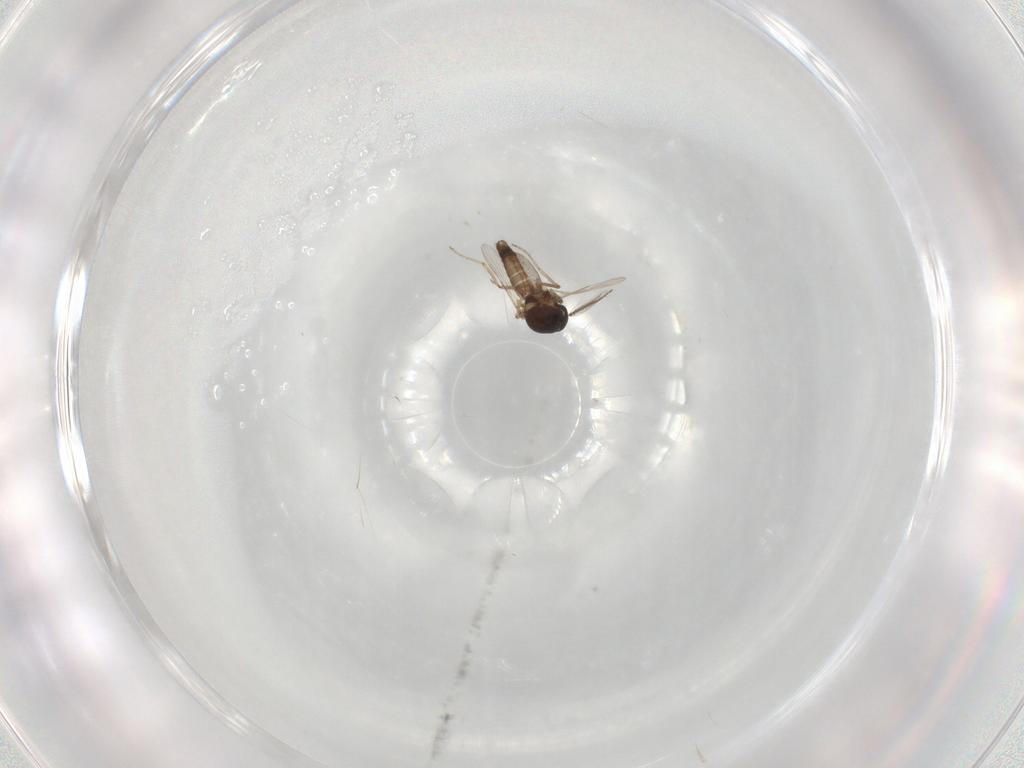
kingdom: Animalia
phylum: Arthropoda
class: Insecta
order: Diptera
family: Ceratopogonidae
